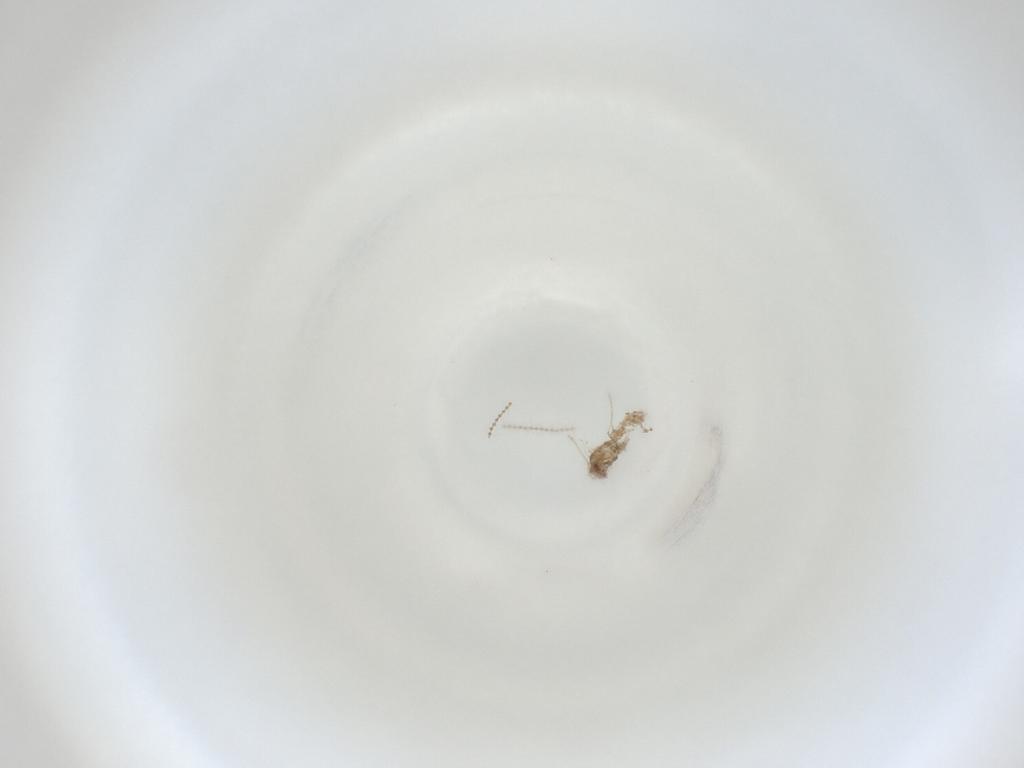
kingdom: Animalia
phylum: Arthropoda
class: Insecta
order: Diptera
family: Cecidomyiidae
